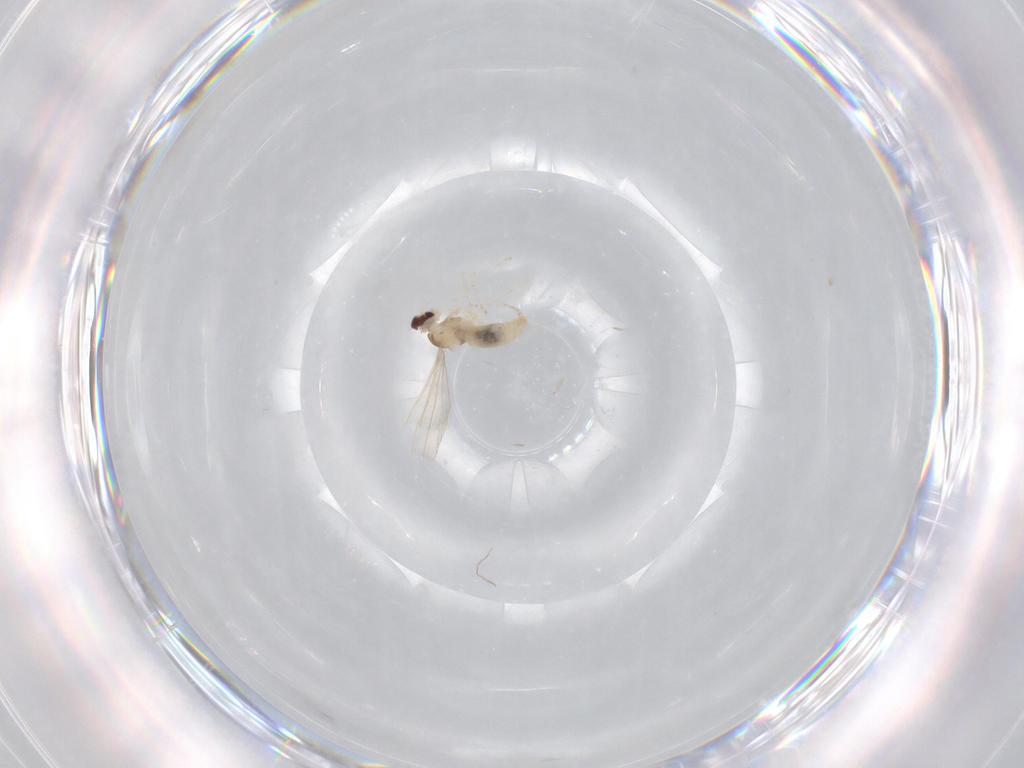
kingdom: Animalia
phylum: Arthropoda
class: Insecta
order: Diptera
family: Cecidomyiidae
